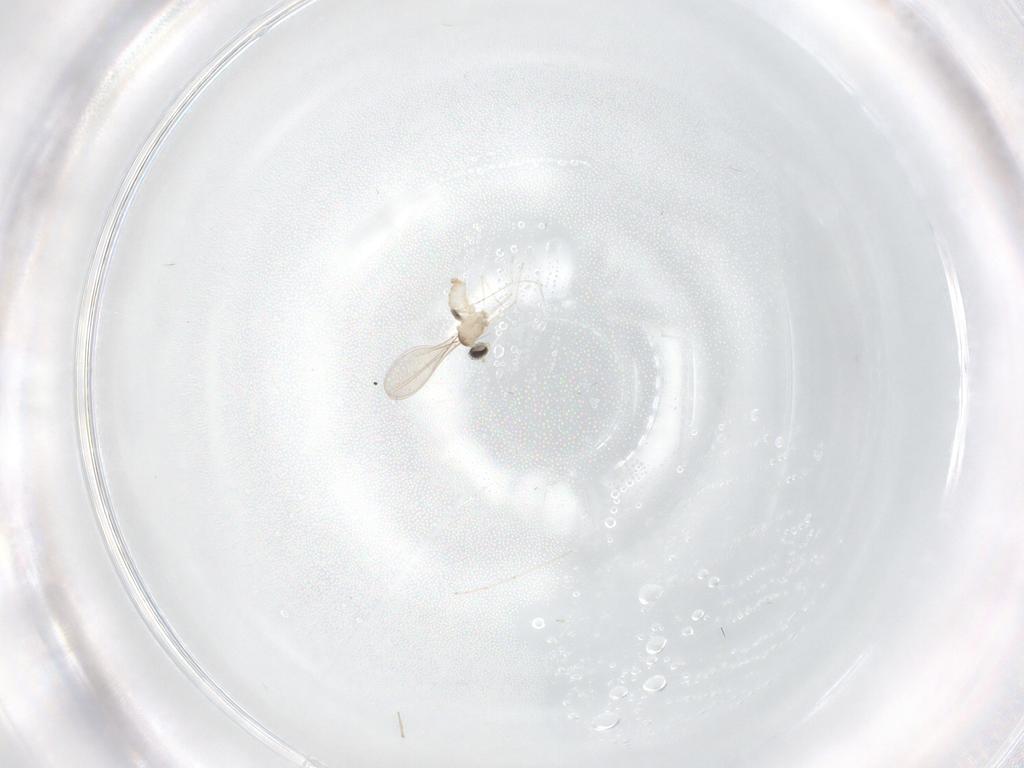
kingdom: Animalia
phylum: Arthropoda
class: Insecta
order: Diptera
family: Cecidomyiidae
